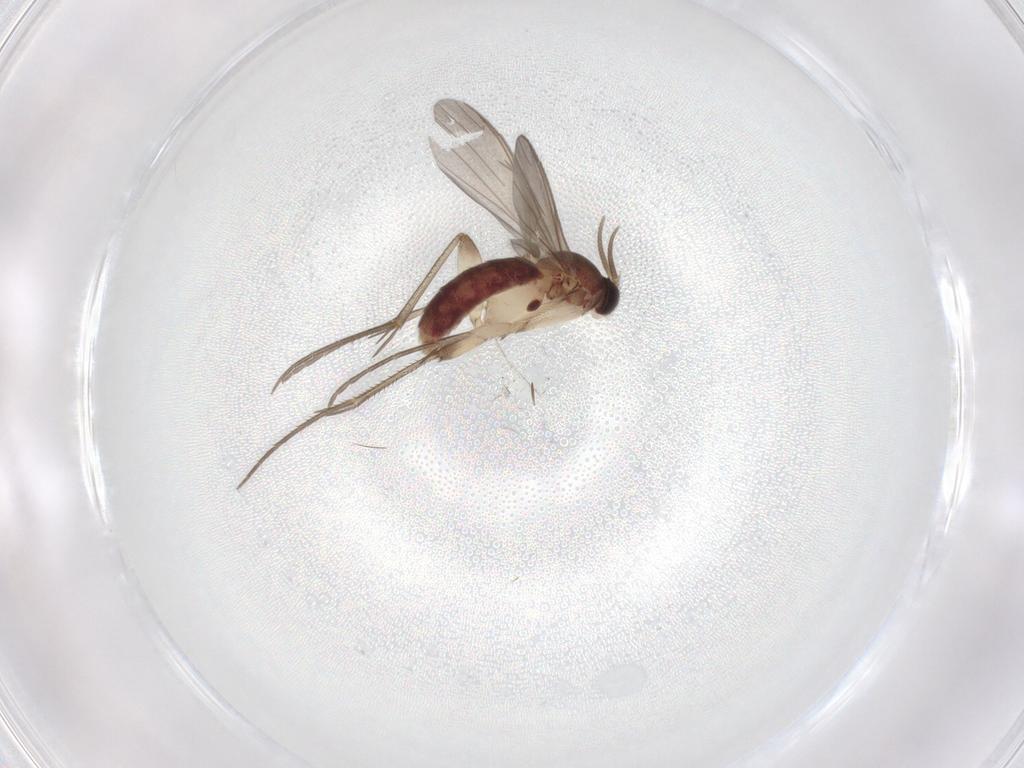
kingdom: Animalia
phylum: Arthropoda
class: Insecta
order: Diptera
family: Mycetophilidae
